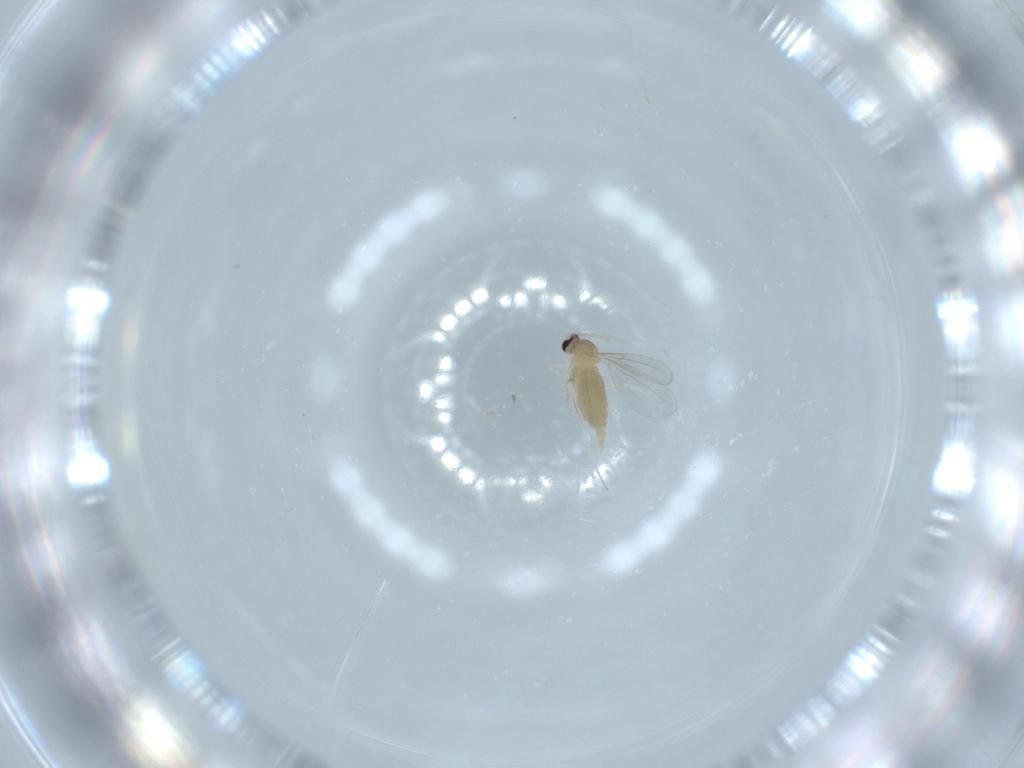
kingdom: Animalia
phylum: Arthropoda
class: Insecta
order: Diptera
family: Cecidomyiidae
